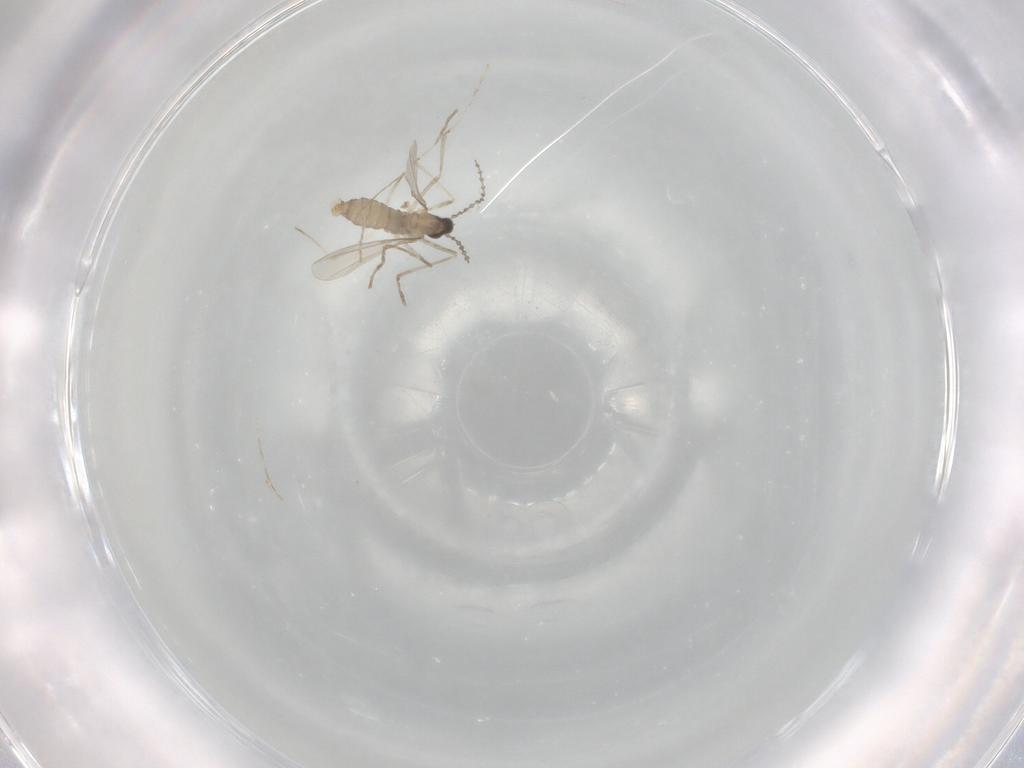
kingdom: Animalia
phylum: Arthropoda
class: Insecta
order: Diptera
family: Cecidomyiidae
